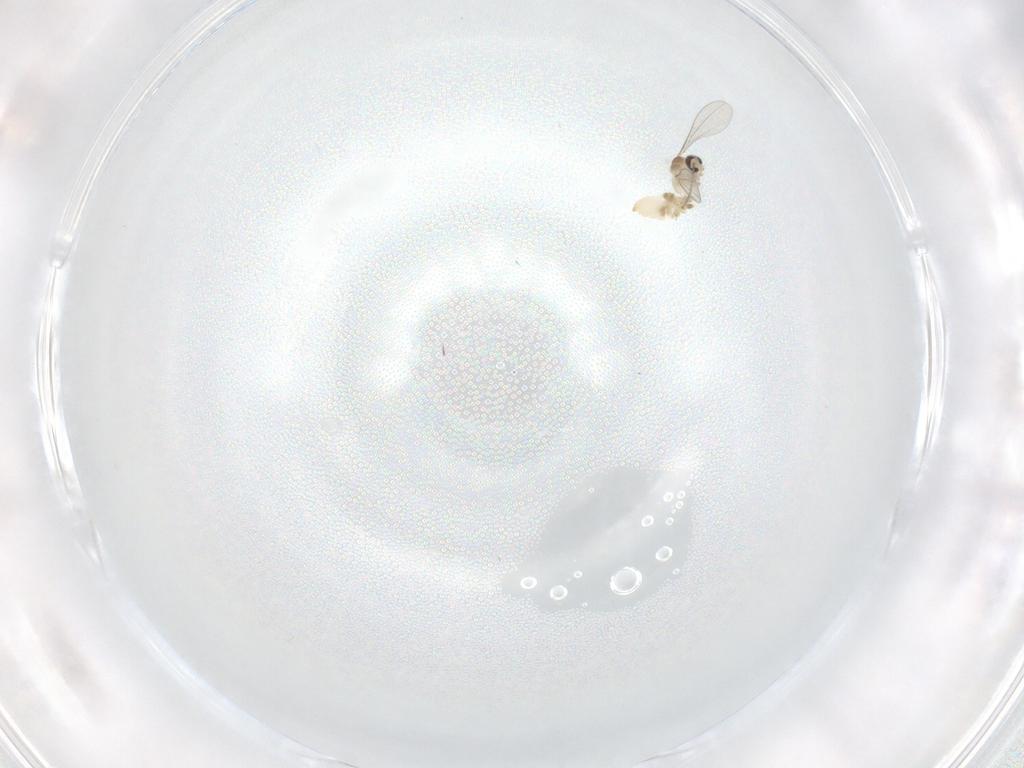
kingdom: Animalia
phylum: Arthropoda
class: Insecta
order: Diptera
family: Cecidomyiidae
